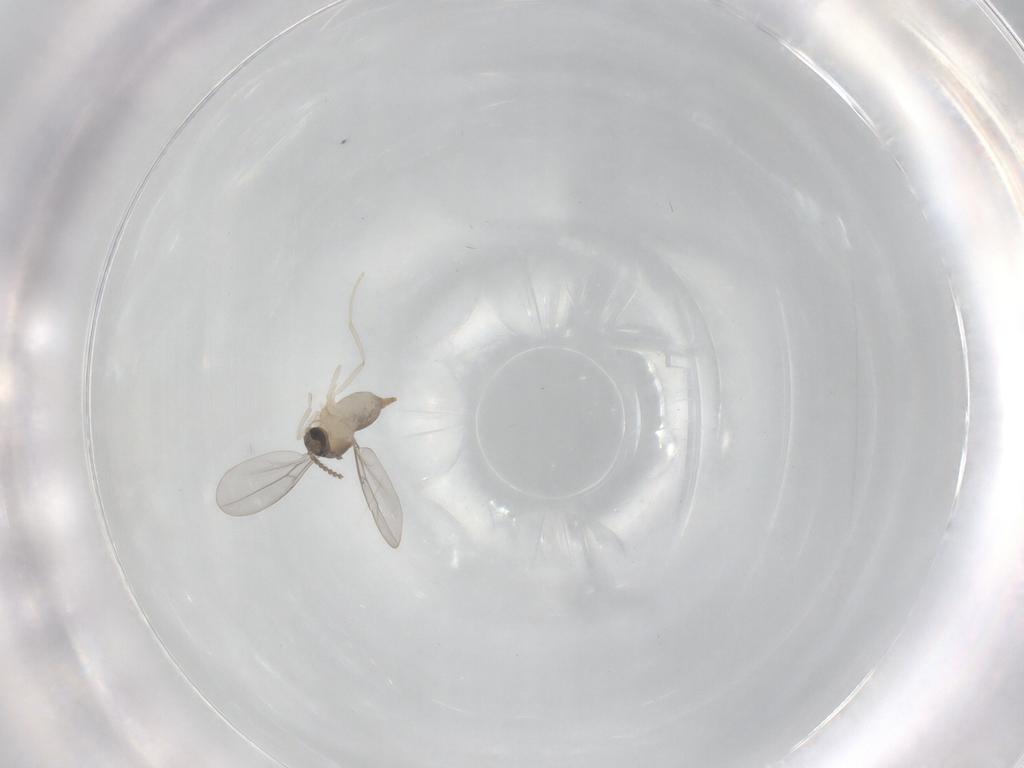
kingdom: Animalia
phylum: Arthropoda
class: Insecta
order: Diptera
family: Cecidomyiidae
